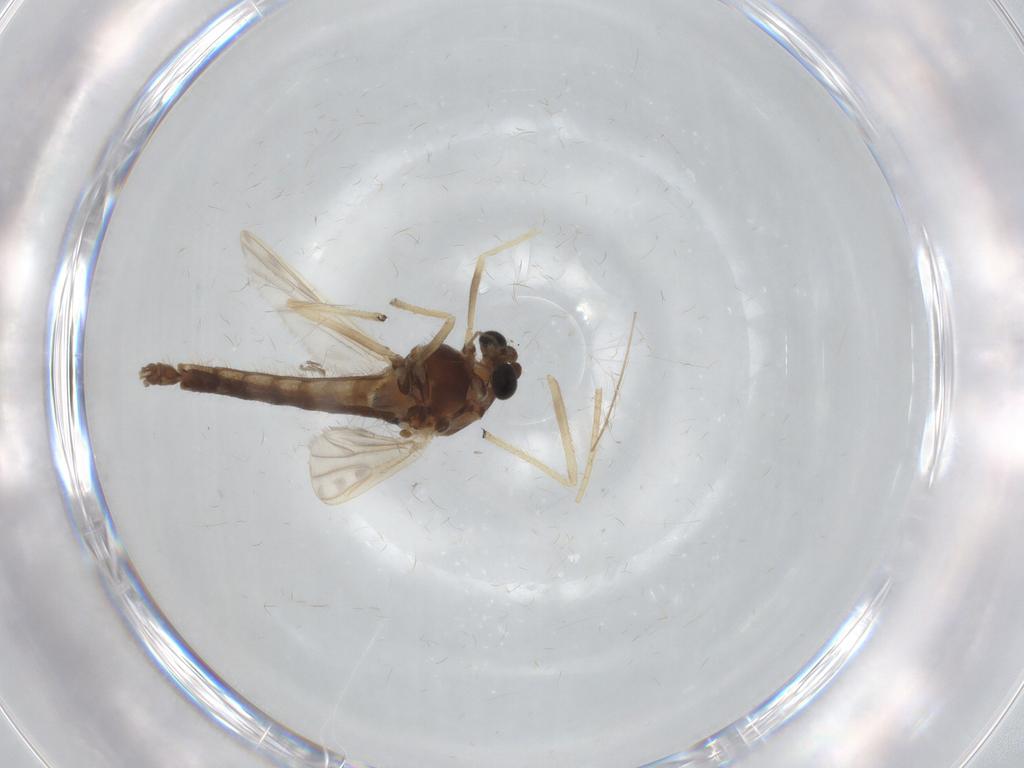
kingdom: Animalia
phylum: Arthropoda
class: Insecta
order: Diptera
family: Chironomidae
